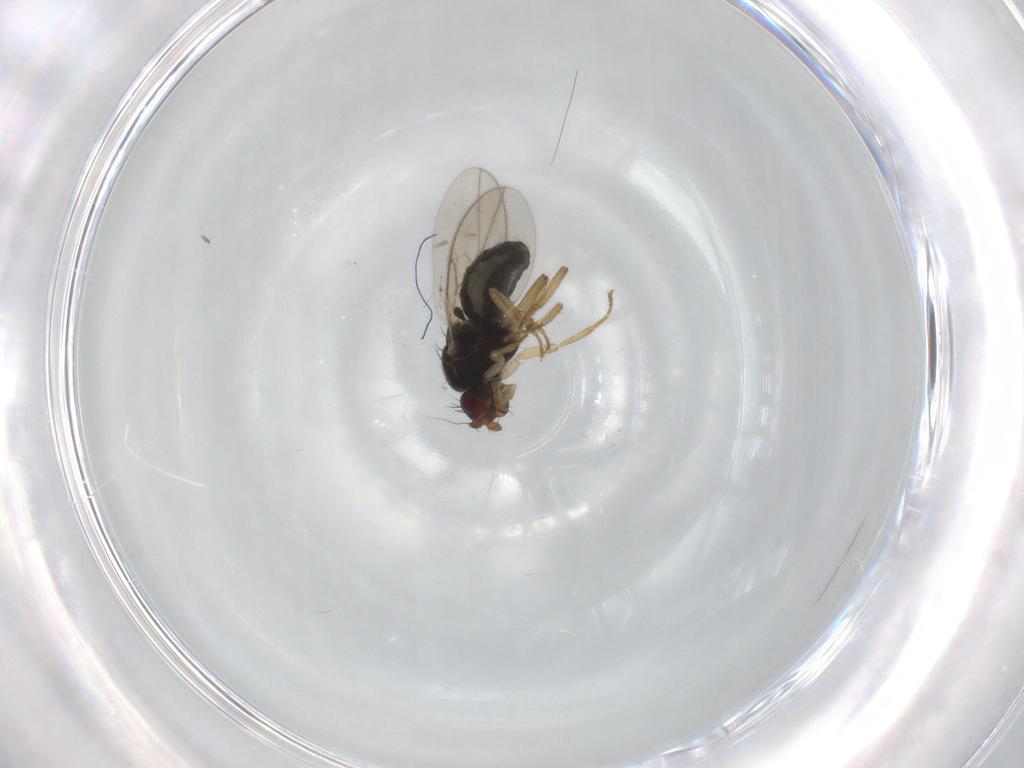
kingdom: Animalia
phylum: Arthropoda
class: Insecta
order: Diptera
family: Sphaeroceridae
